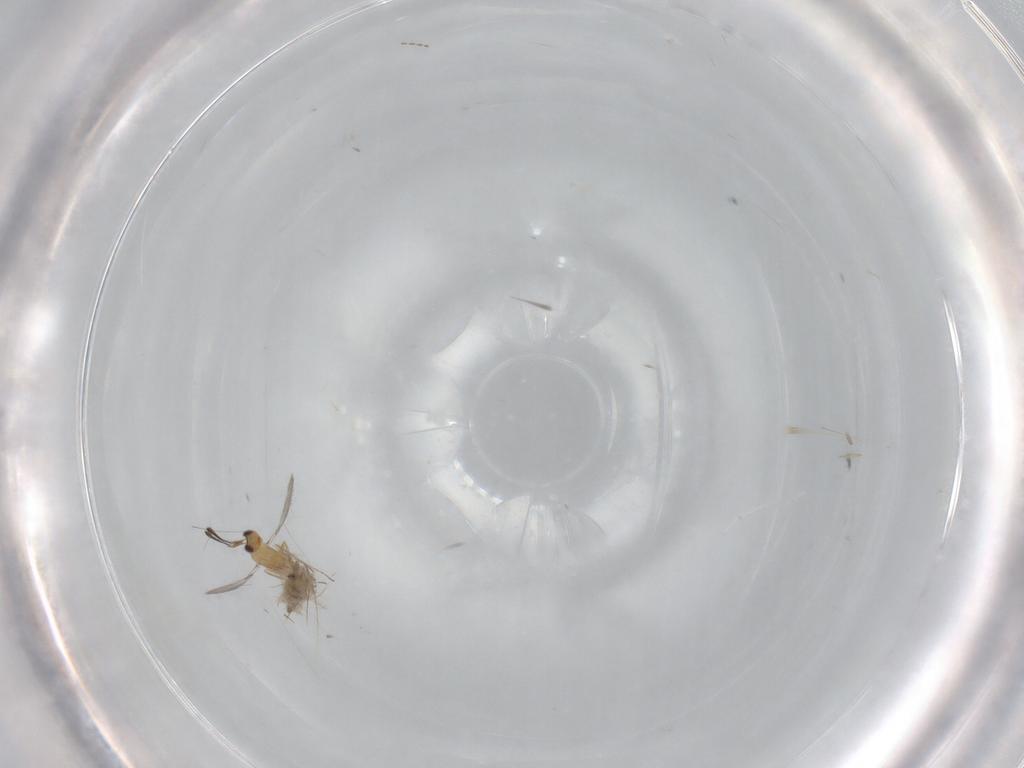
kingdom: Animalia
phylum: Arthropoda
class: Insecta
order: Hymenoptera
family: Mymaridae
